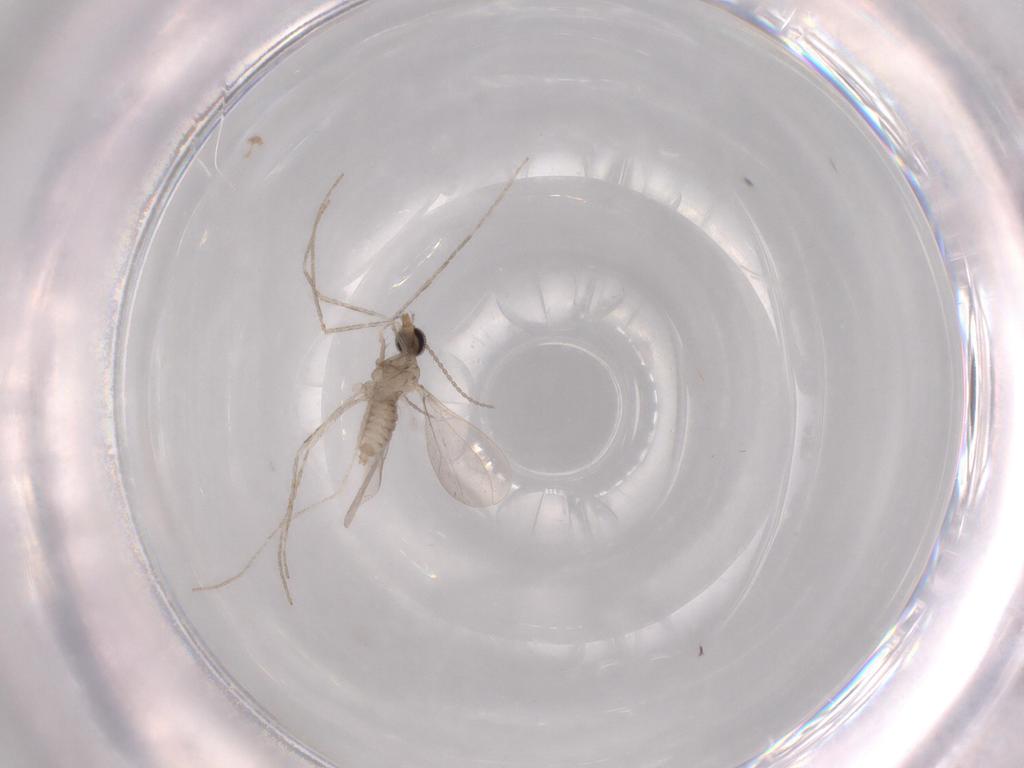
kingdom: Animalia
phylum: Arthropoda
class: Insecta
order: Diptera
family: Cecidomyiidae
